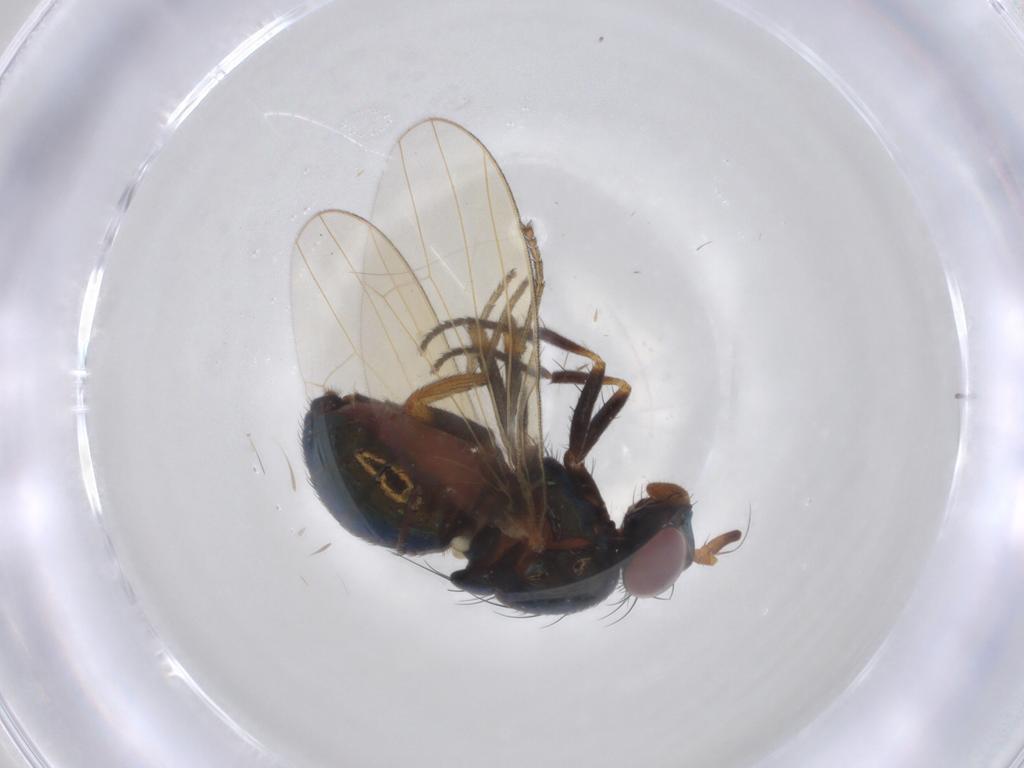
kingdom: Animalia
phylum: Arthropoda
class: Insecta
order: Diptera
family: Lauxaniidae
